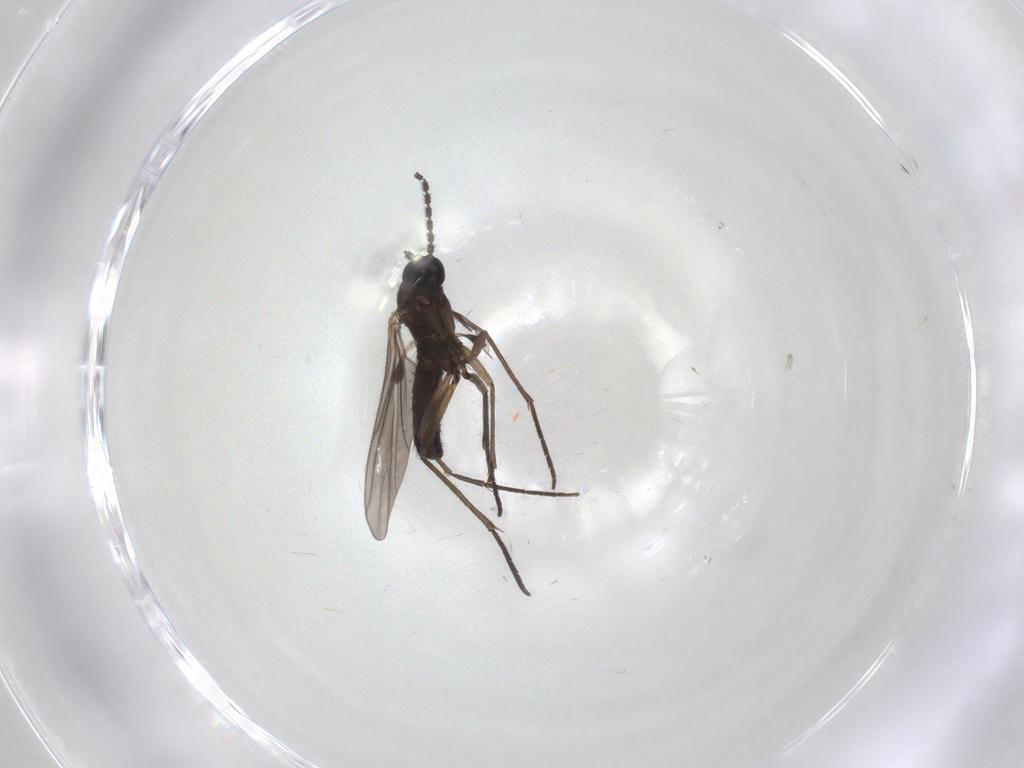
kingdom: Animalia
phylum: Arthropoda
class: Insecta
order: Diptera
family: Sciaridae
